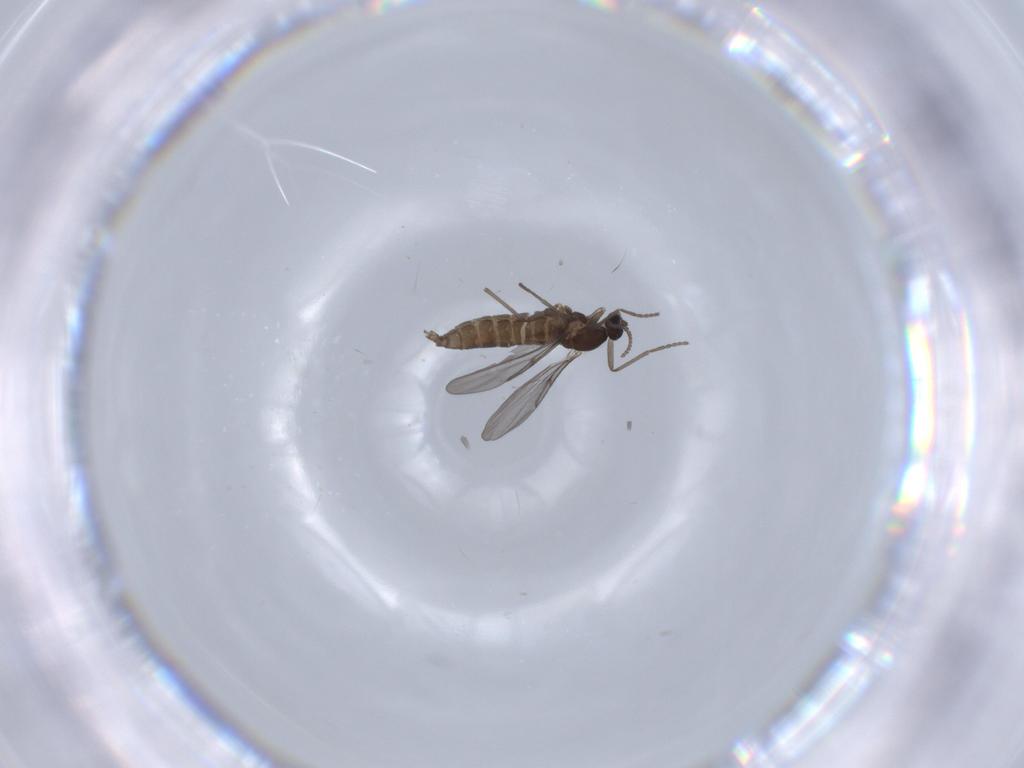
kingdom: Animalia
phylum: Arthropoda
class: Insecta
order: Diptera
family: Cecidomyiidae
